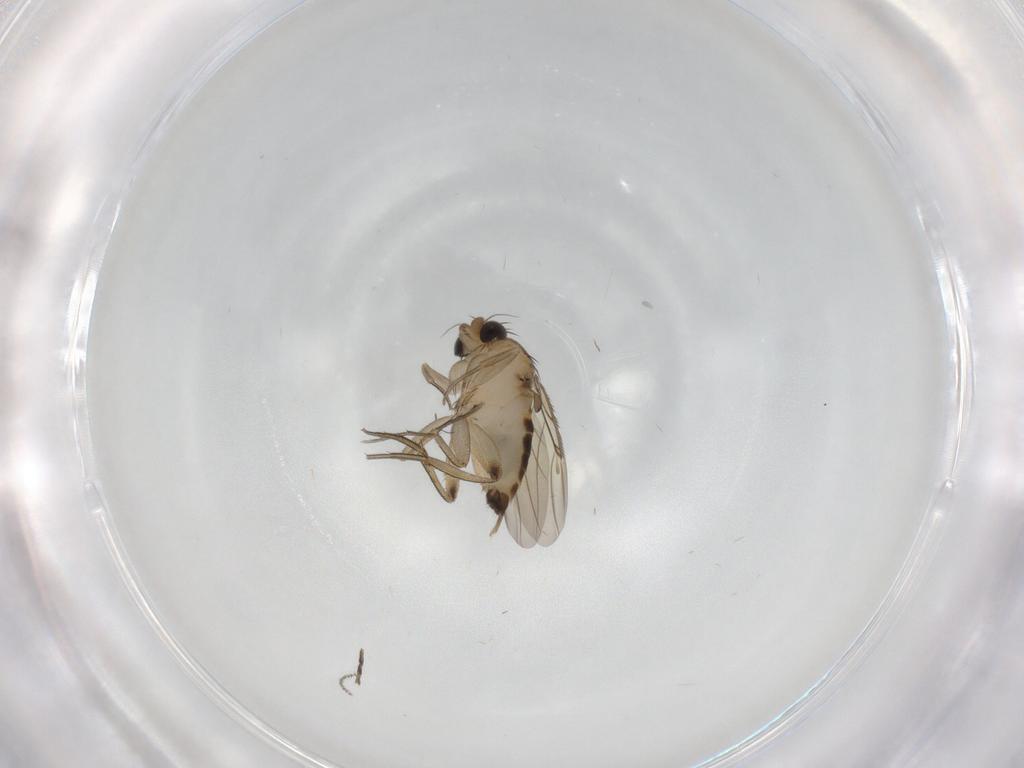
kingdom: Animalia
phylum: Arthropoda
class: Insecta
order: Diptera
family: Phoridae
